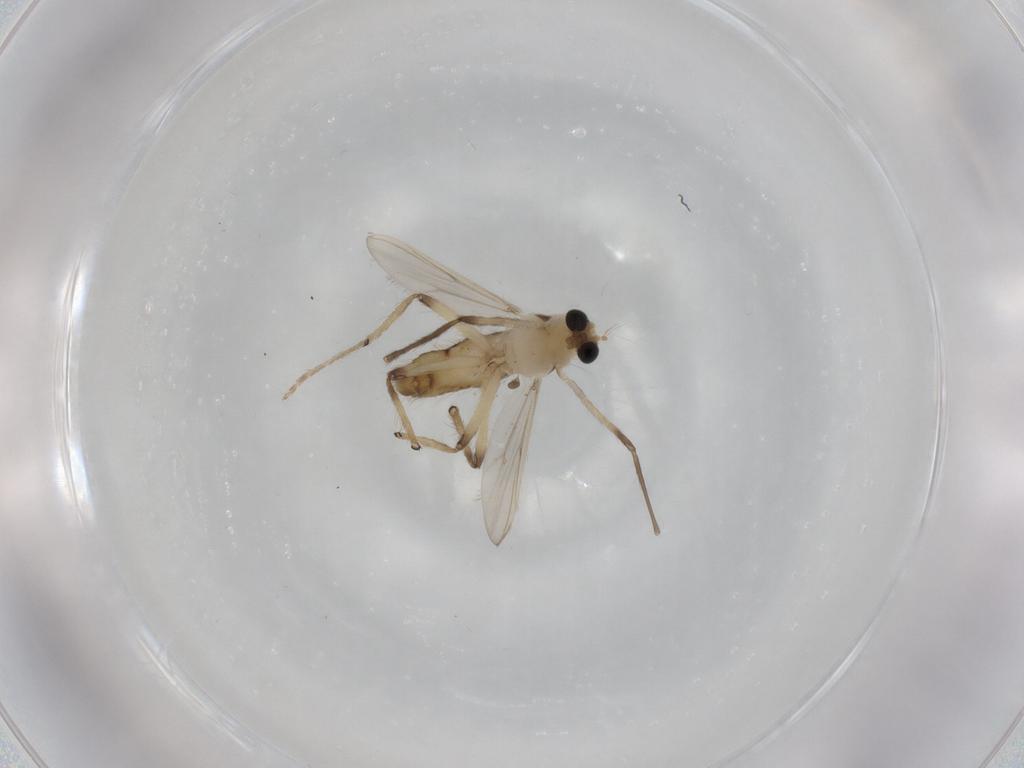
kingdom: Animalia
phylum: Arthropoda
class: Insecta
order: Diptera
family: Chironomidae
